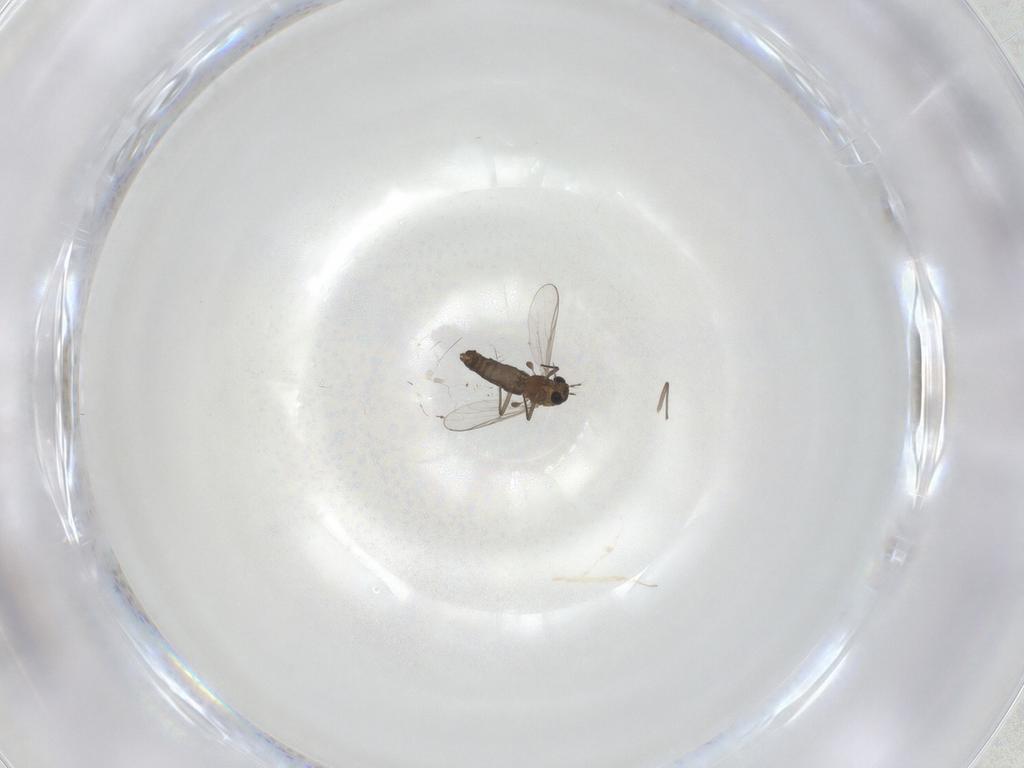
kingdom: Animalia
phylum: Arthropoda
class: Insecta
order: Diptera
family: Chironomidae
